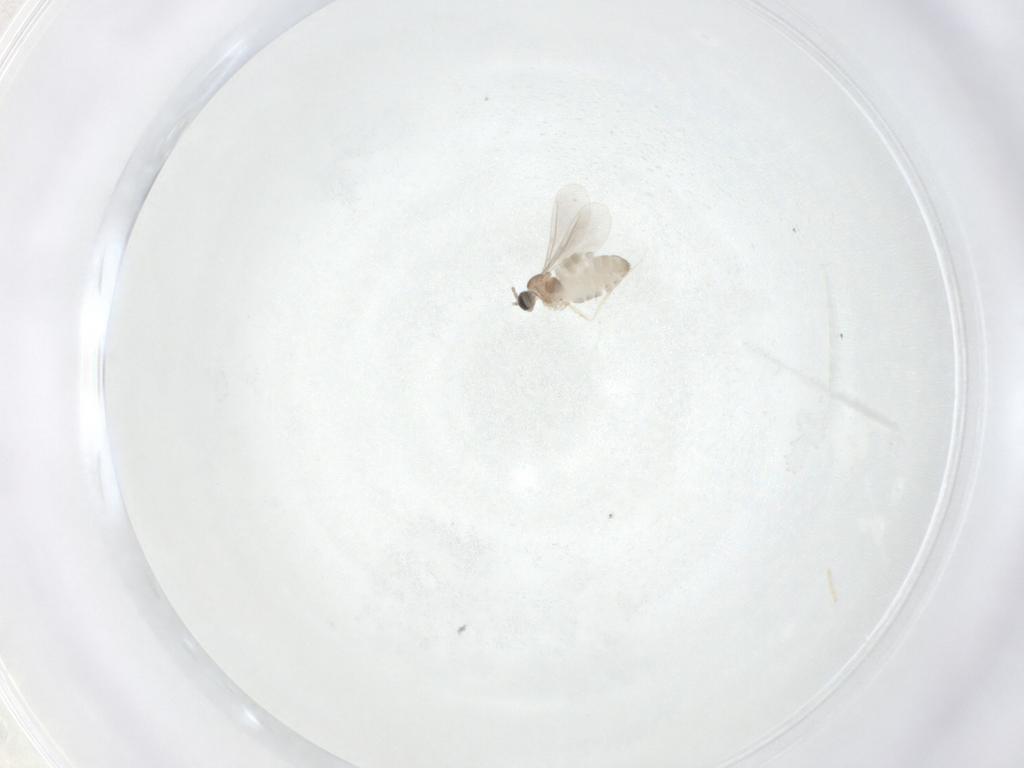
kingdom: Animalia
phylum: Arthropoda
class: Insecta
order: Diptera
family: Cecidomyiidae
